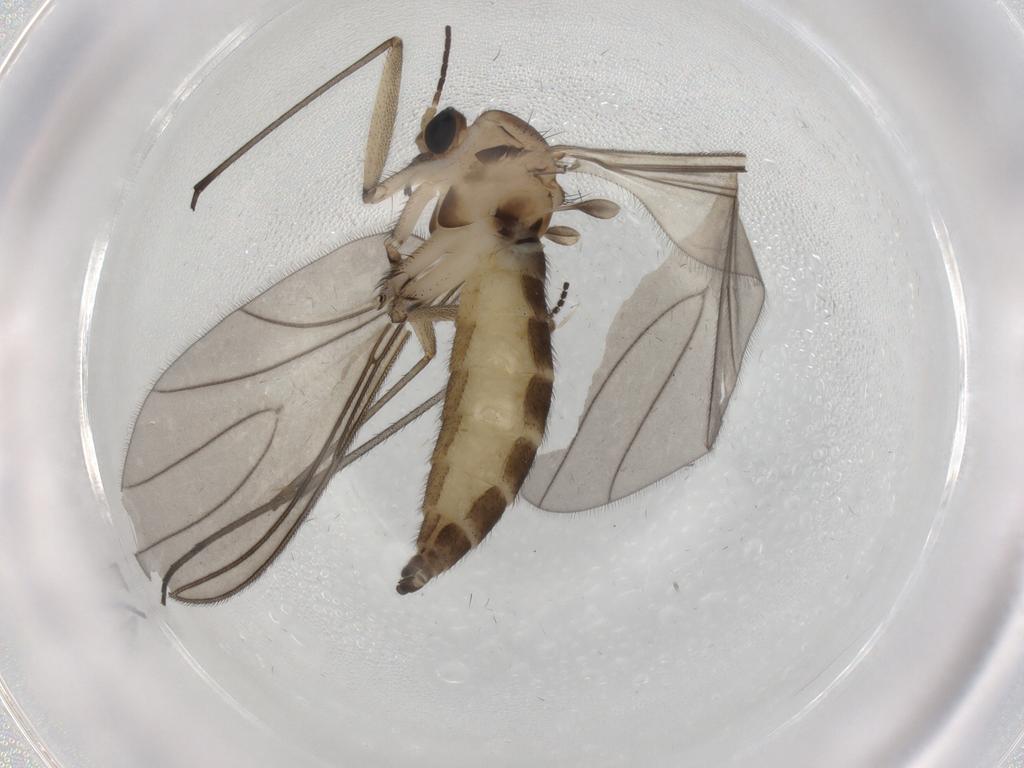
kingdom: Animalia
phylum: Arthropoda
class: Insecta
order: Diptera
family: Sciaridae
